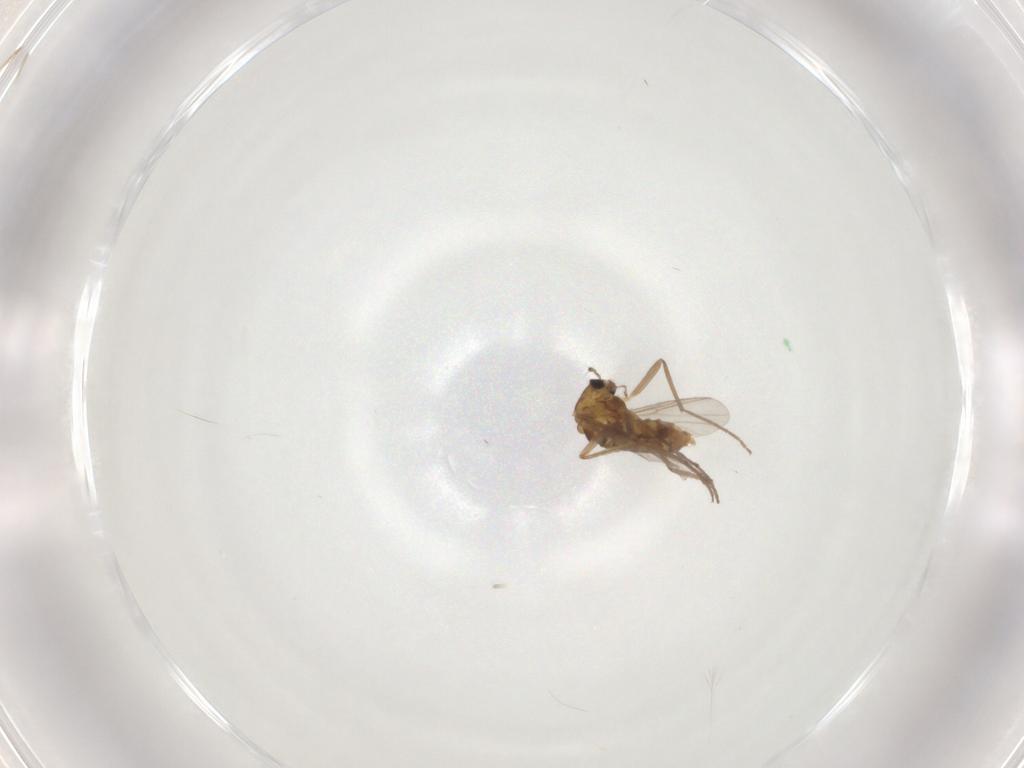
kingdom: Animalia
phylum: Arthropoda
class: Insecta
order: Diptera
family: Chironomidae
